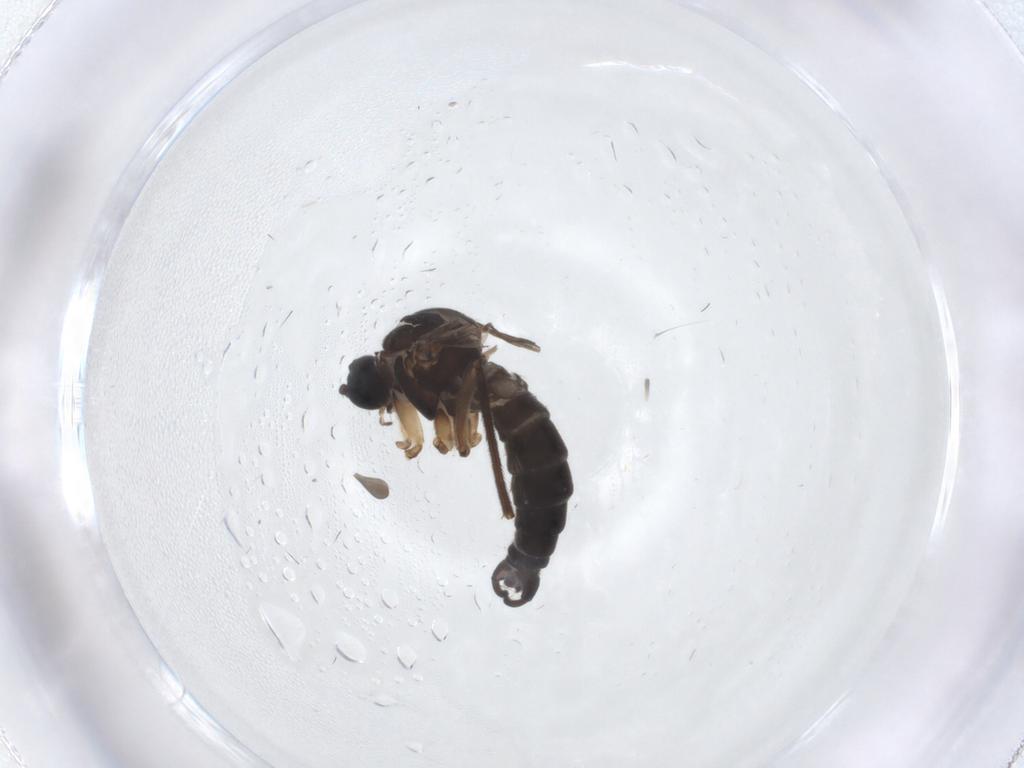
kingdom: Animalia
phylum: Arthropoda
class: Insecta
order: Diptera
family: Sciaridae
